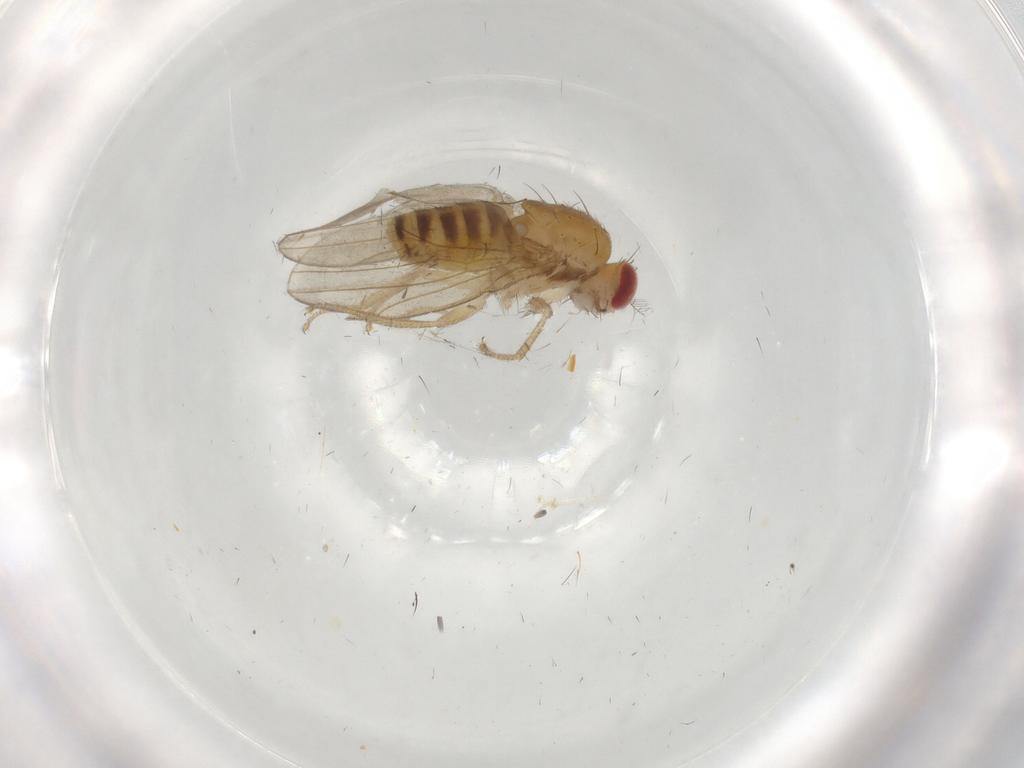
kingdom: Animalia
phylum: Arthropoda
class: Insecta
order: Diptera
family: Drosophilidae
